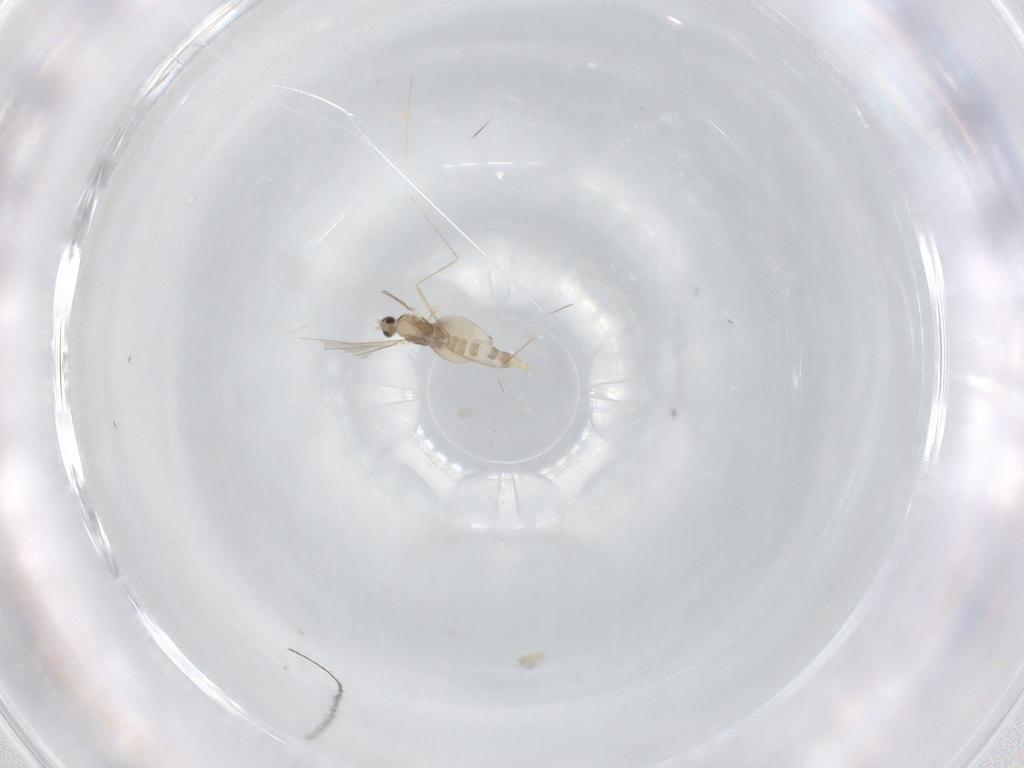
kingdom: Animalia
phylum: Arthropoda
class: Insecta
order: Diptera
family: Cecidomyiidae
